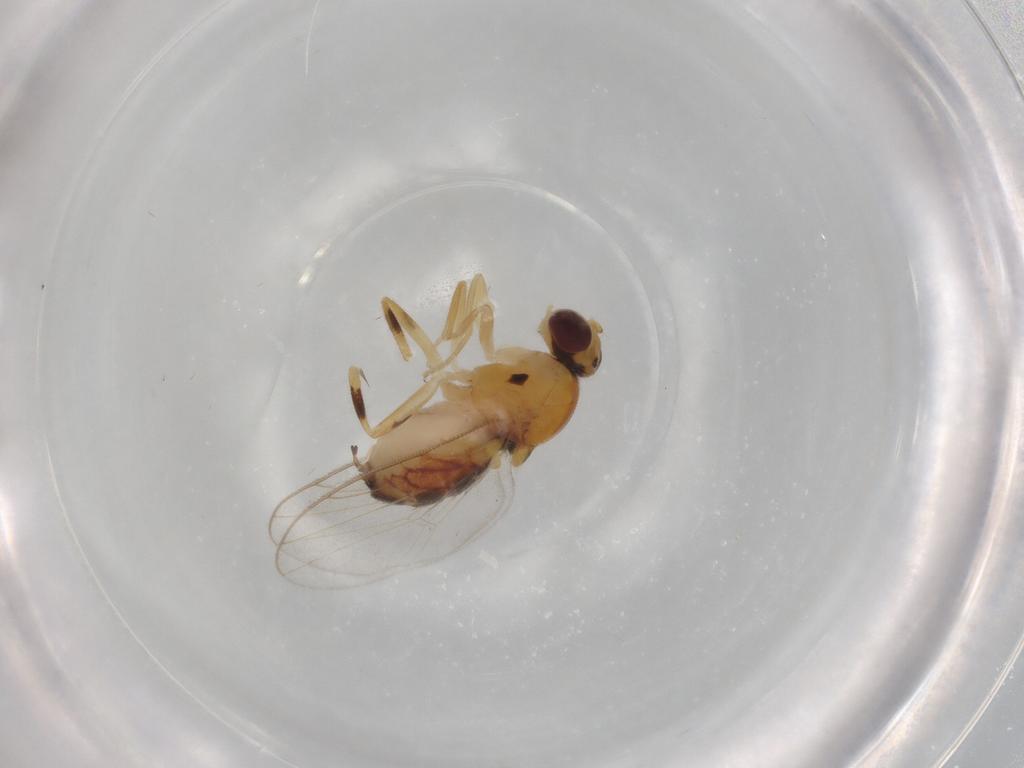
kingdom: Animalia
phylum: Arthropoda
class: Insecta
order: Diptera
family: Chloropidae
